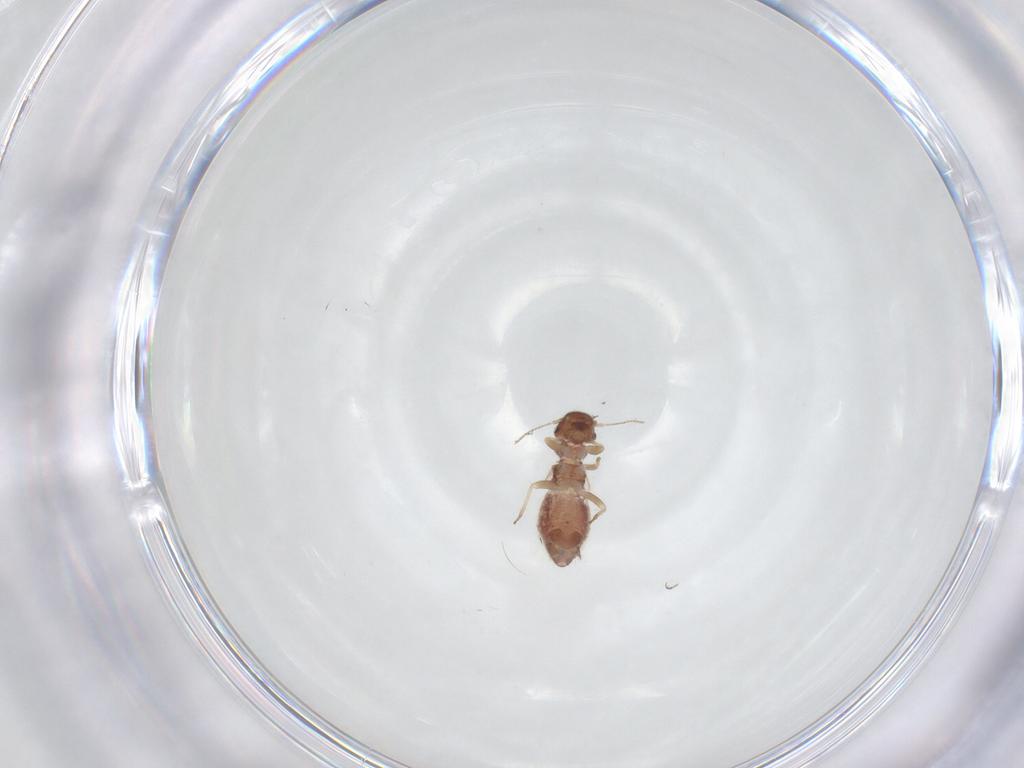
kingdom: Animalia
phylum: Arthropoda
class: Insecta
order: Psocodea
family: Archipsocidae
